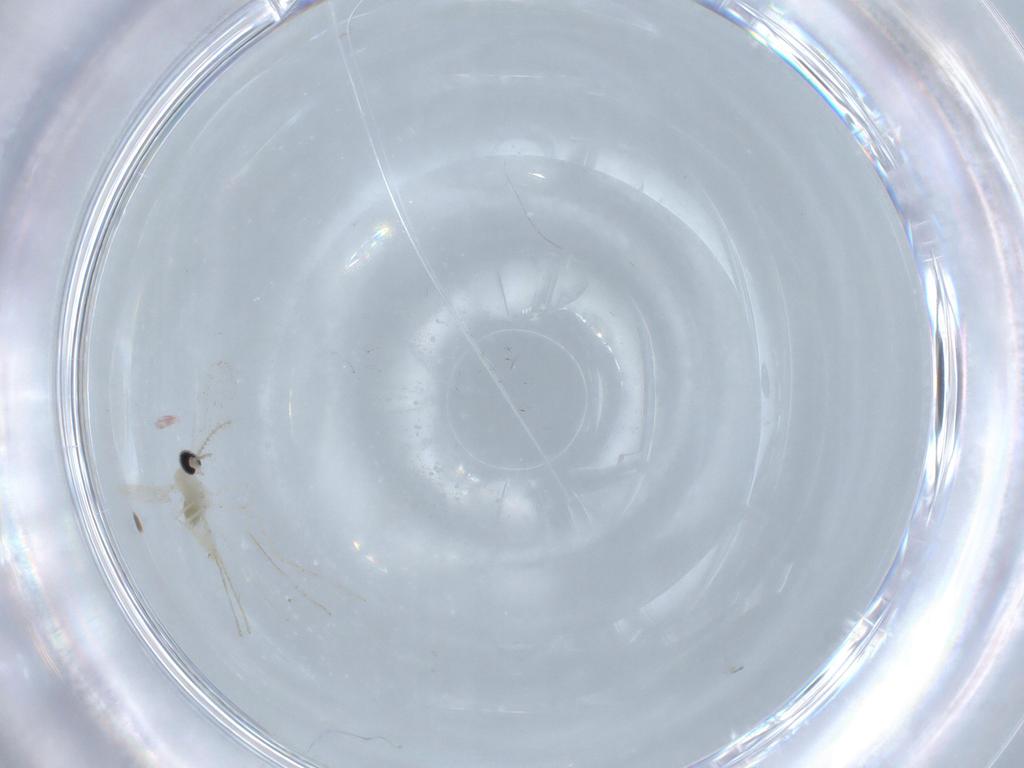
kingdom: Animalia
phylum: Arthropoda
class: Insecta
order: Diptera
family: Cecidomyiidae
